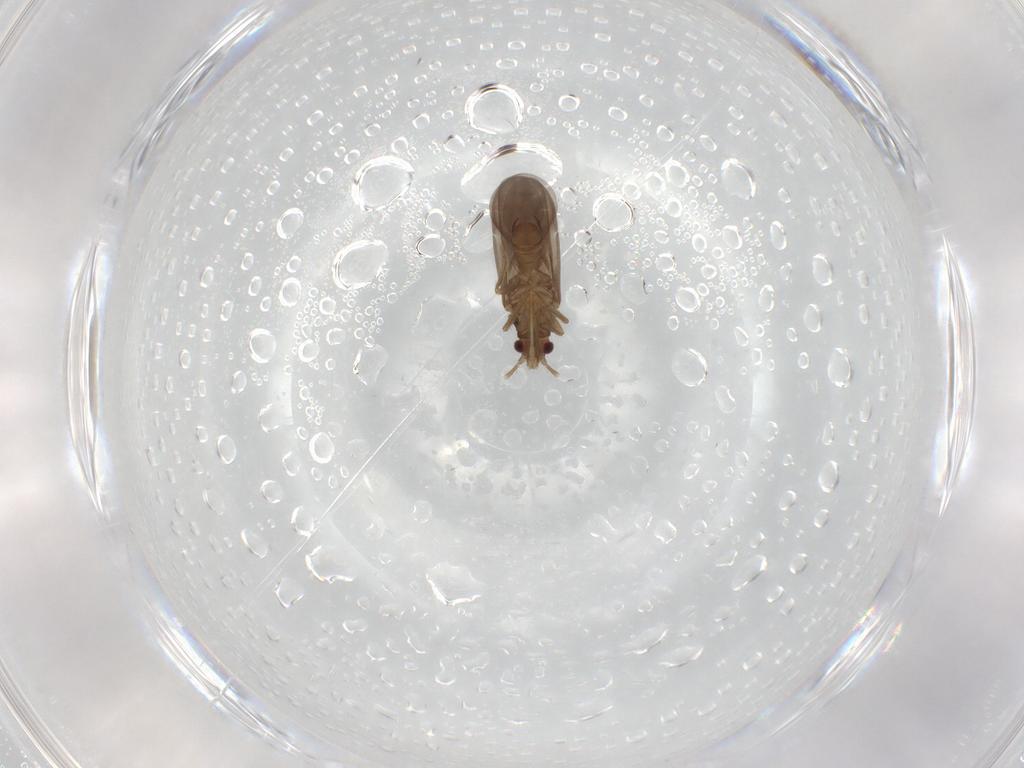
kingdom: Animalia
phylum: Arthropoda
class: Insecta
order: Hemiptera
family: Ceratocombidae
